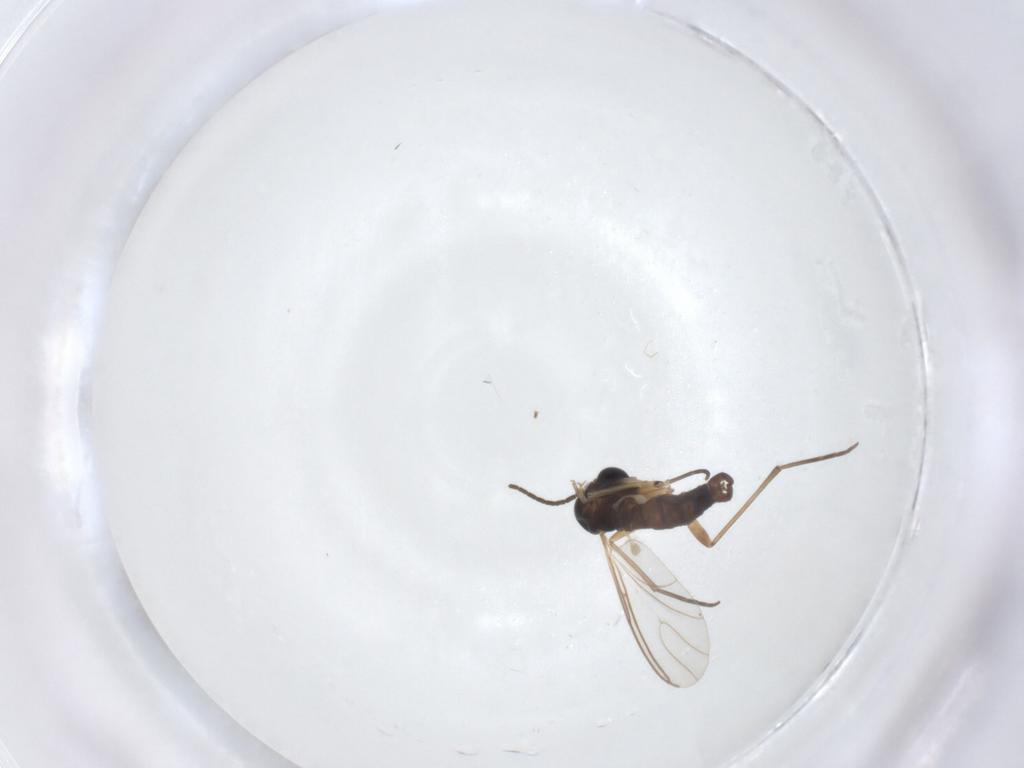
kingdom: Animalia
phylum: Arthropoda
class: Insecta
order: Diptera
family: Sciaridae
